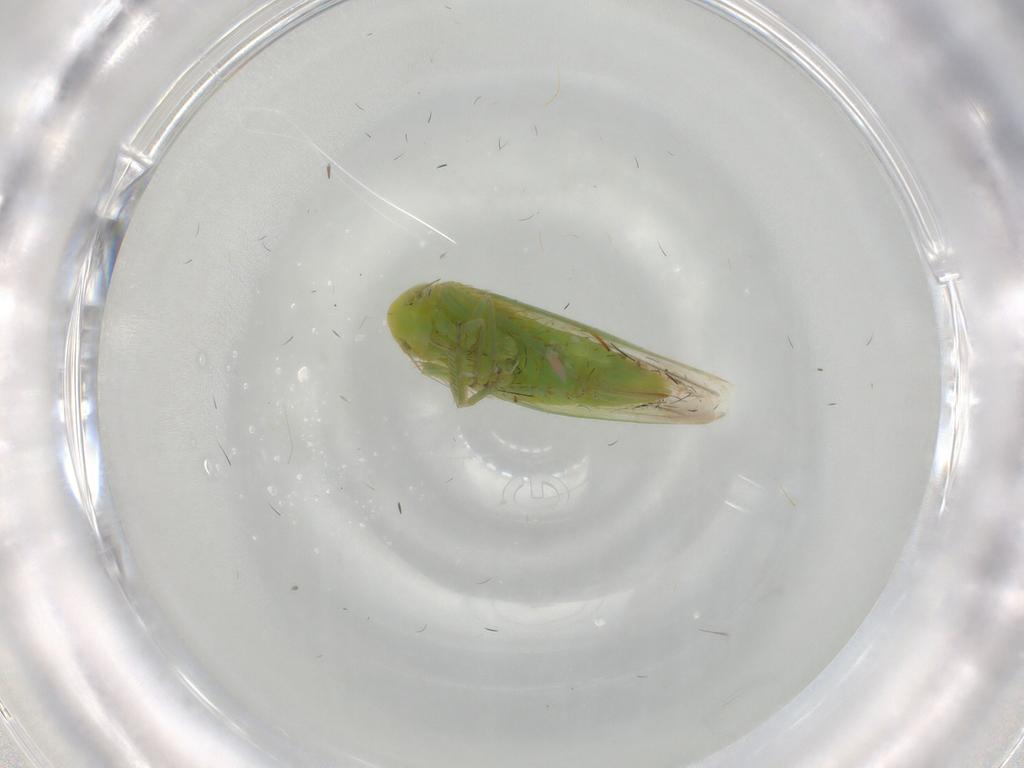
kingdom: Animalia
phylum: Arthropoda
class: Insecta
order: Hemiptera
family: Cicadellidae
